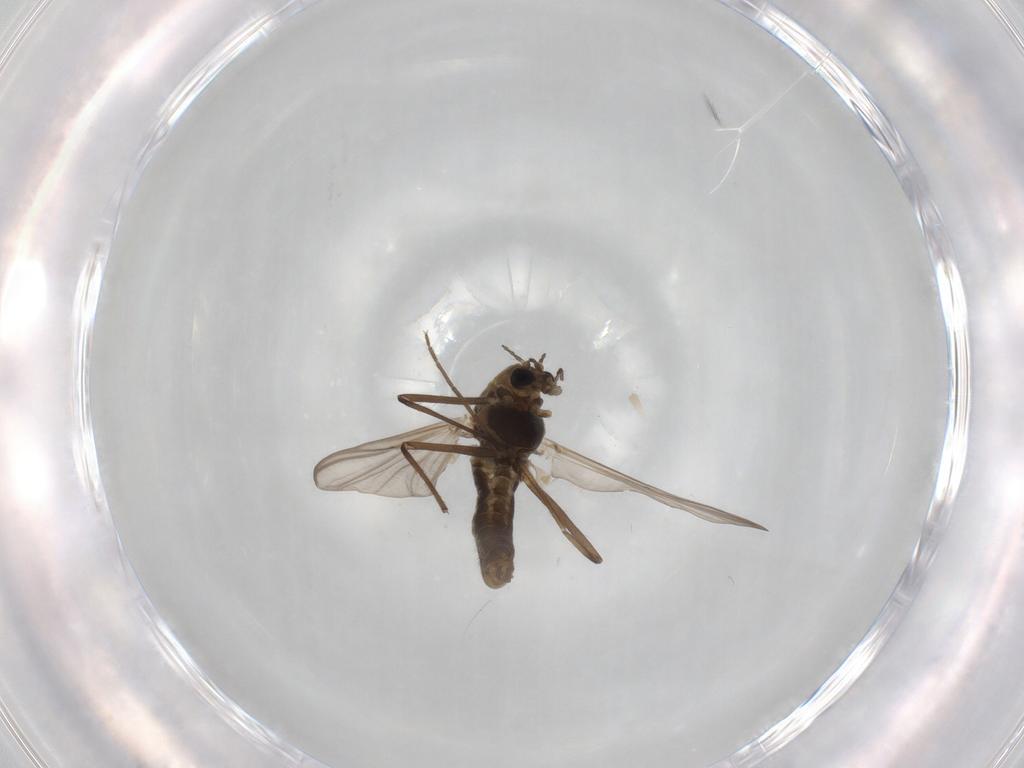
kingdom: Animalia
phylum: Arthropoda
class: Insecta
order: Diptera
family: Chironomidae
